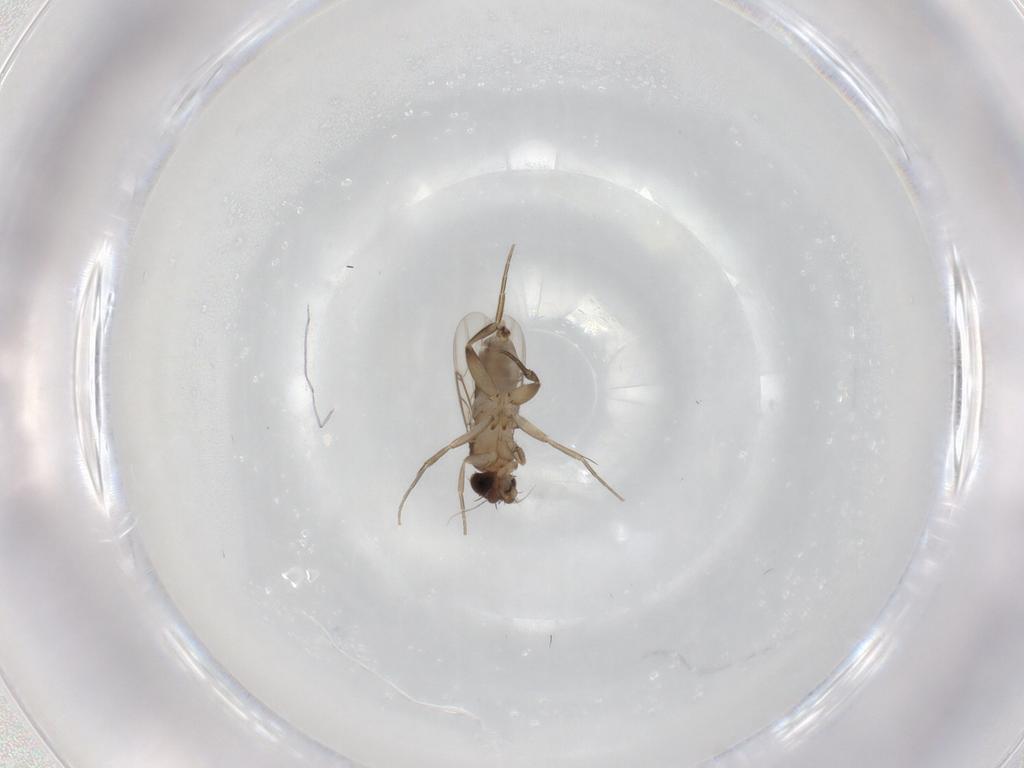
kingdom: Animalia
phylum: Arthropoda
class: Insecta
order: Diptera
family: Phoridae
